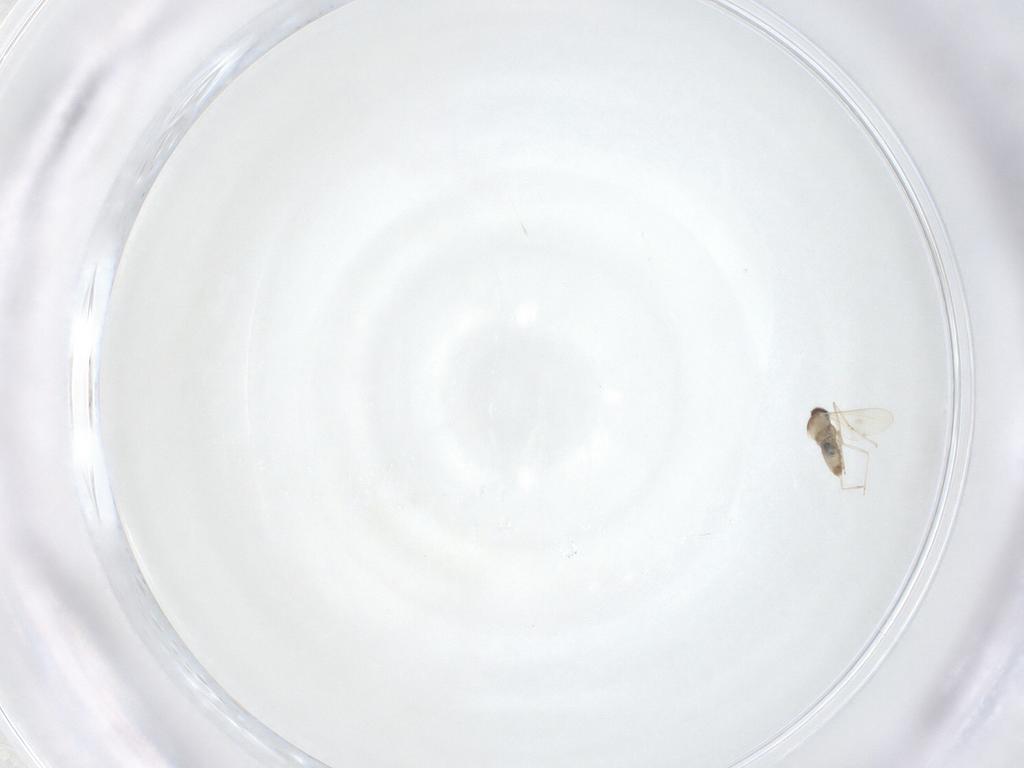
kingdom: Animalia
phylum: Arthropoda
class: Insecta
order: Diptera
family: Cecidomyiidae
